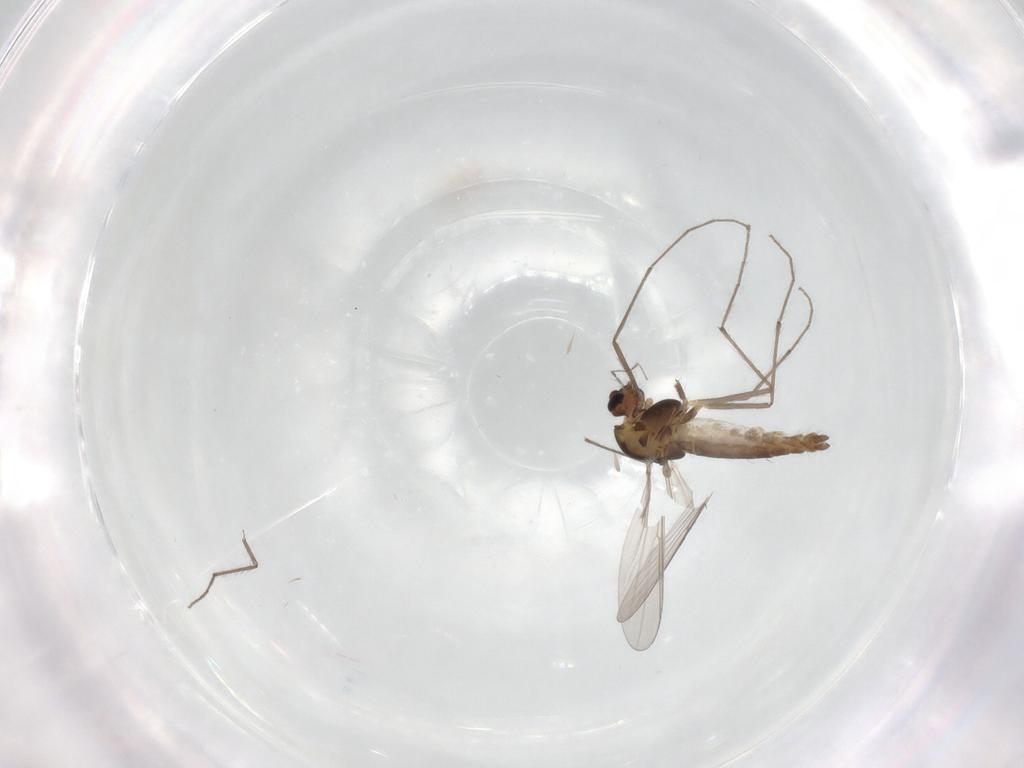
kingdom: Animalia
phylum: Arthropoda
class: Insecta
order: Diptera
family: Chironomidae
